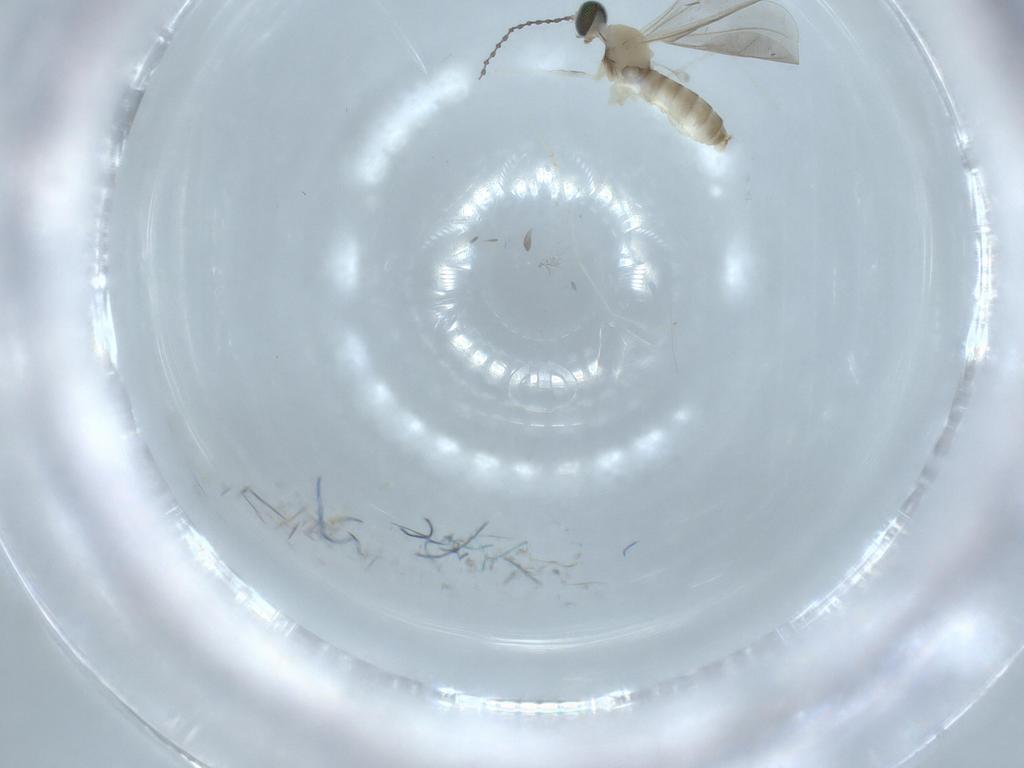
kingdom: Animalia
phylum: Arthropoda
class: Insecta
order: Diptera
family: Cecidomyiidae
